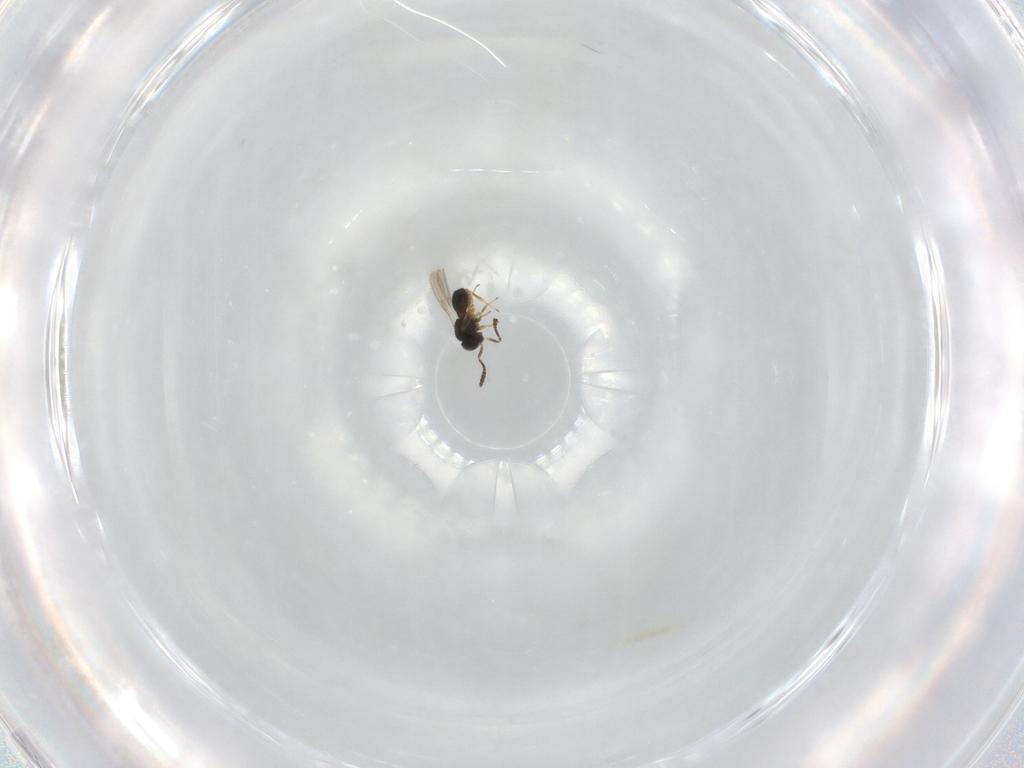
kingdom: Animalia
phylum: Arthropoda
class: Insecta
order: Hymenoptera
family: Scelionidae
